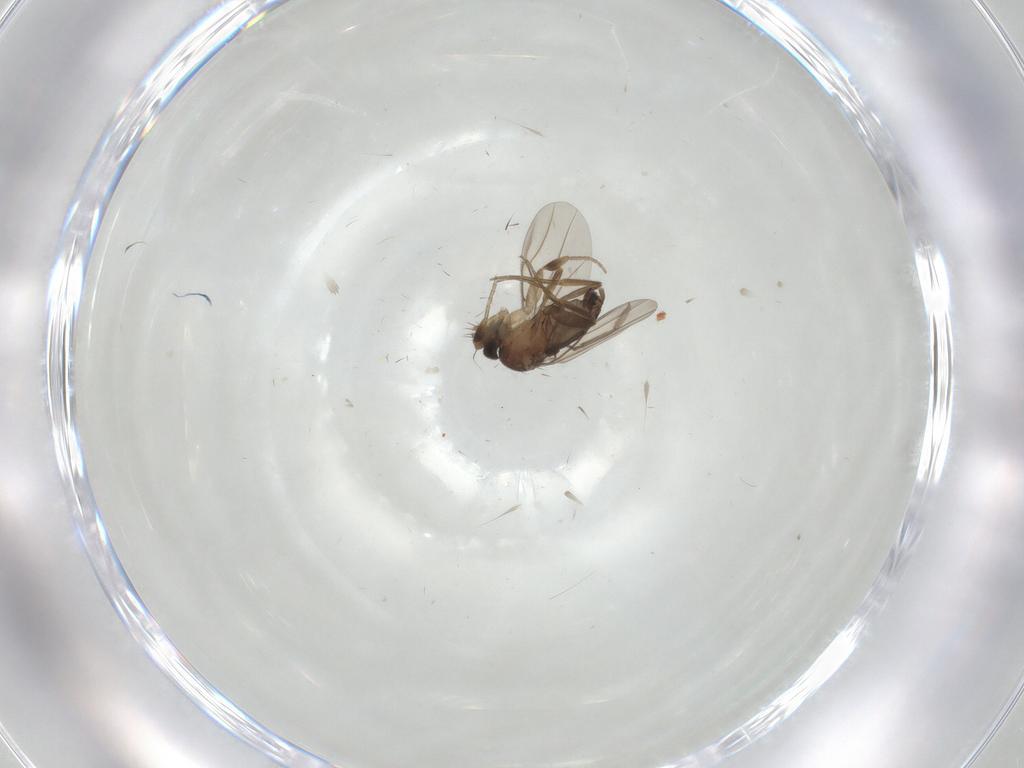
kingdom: Animalia
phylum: Arthropoda
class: Insecta
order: Diptera
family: Phoridae
